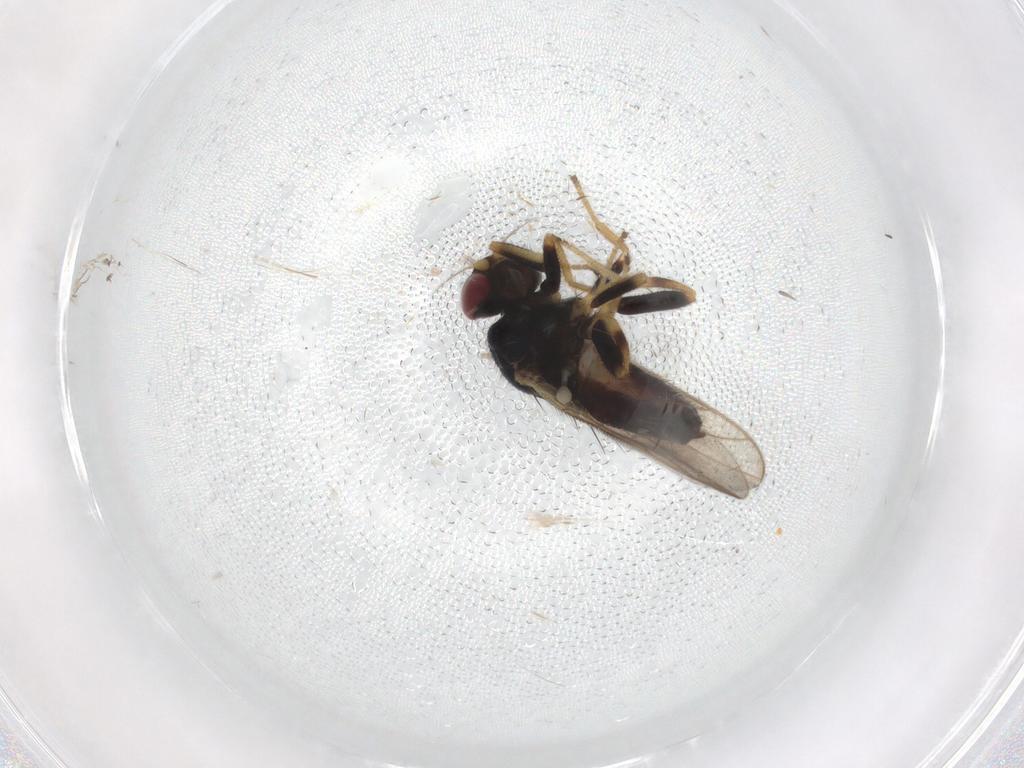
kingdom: Animalia
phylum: Arthropoda
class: Insecta
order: Diptera
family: Chloropidae
